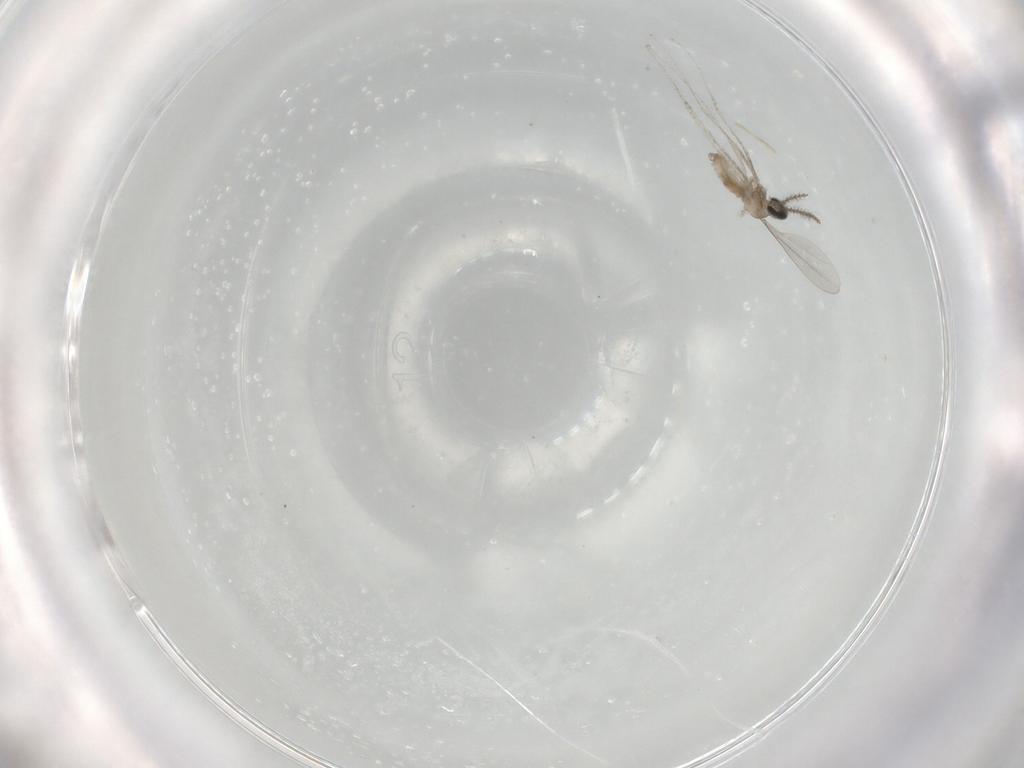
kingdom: Animalia
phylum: Arthropoda
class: Insecta
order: Diptera
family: Cecidomyiidae
